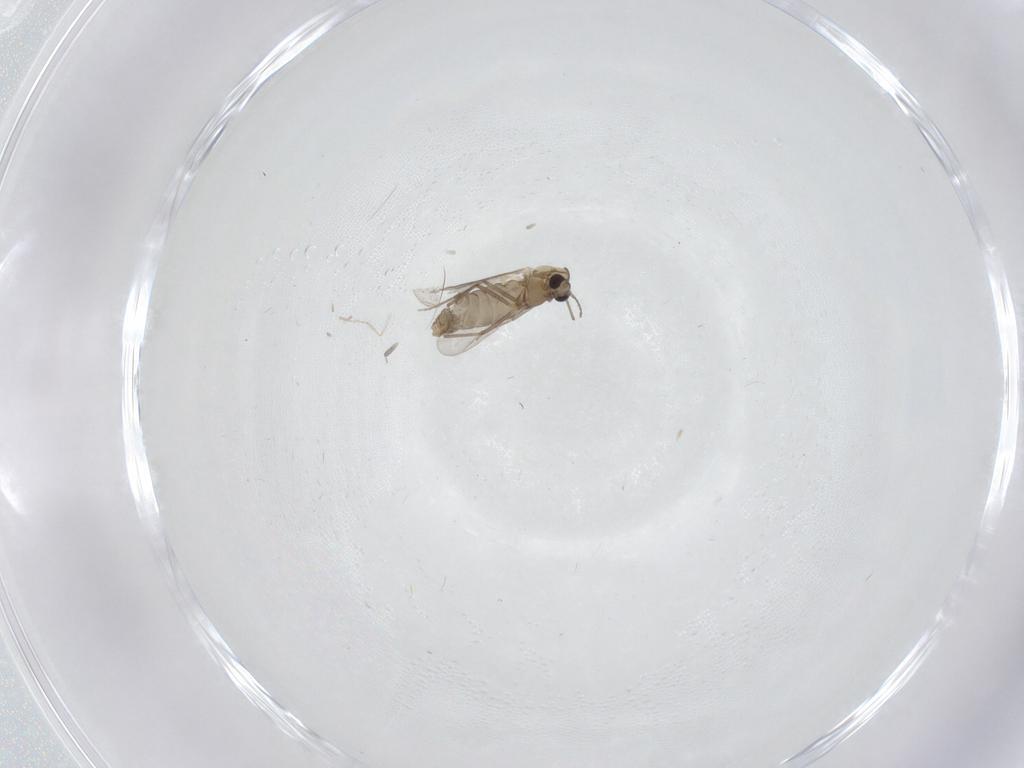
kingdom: Animalia
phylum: Arthropoda
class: Insecta
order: Diptera
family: Chironomidae
